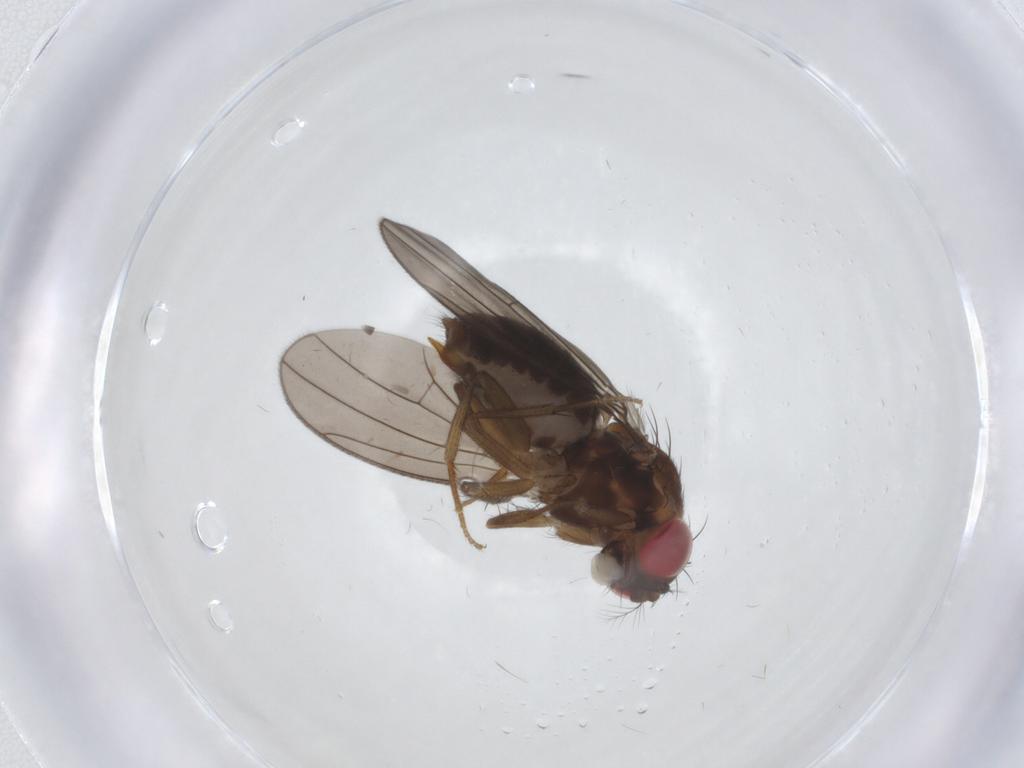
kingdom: Animalia
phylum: Arthropoda
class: Insecta
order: Diptera
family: Drosophilidae
